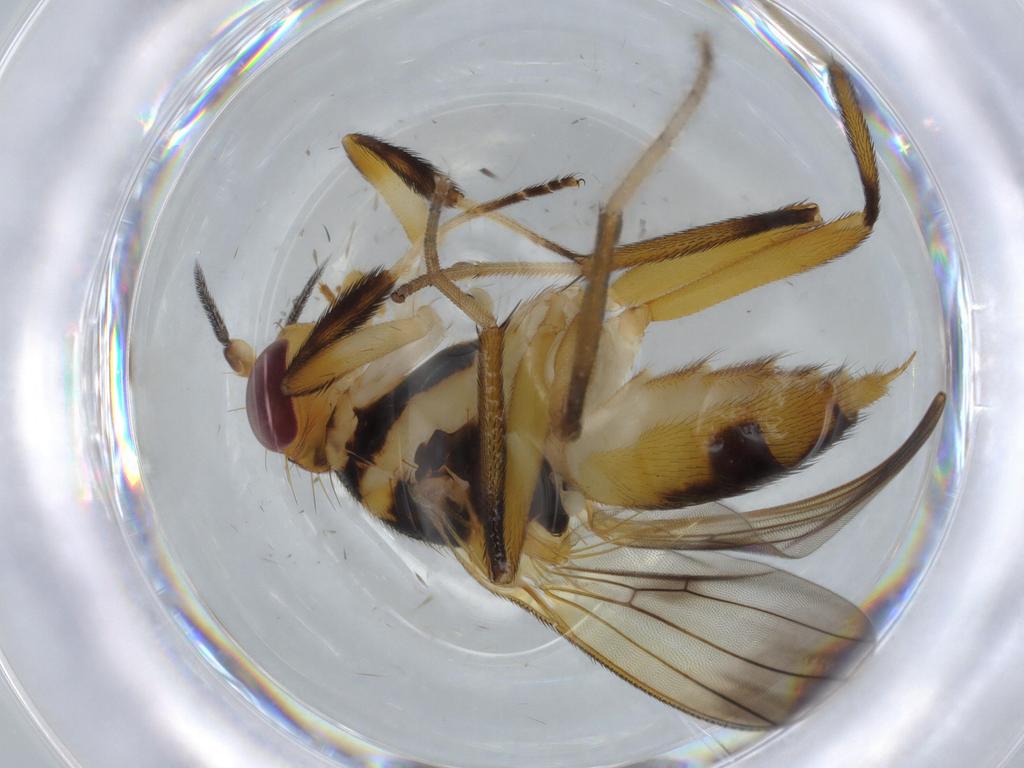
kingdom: Animalia
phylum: Arthropoda
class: Insecta
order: Diptera
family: Clusiidae
